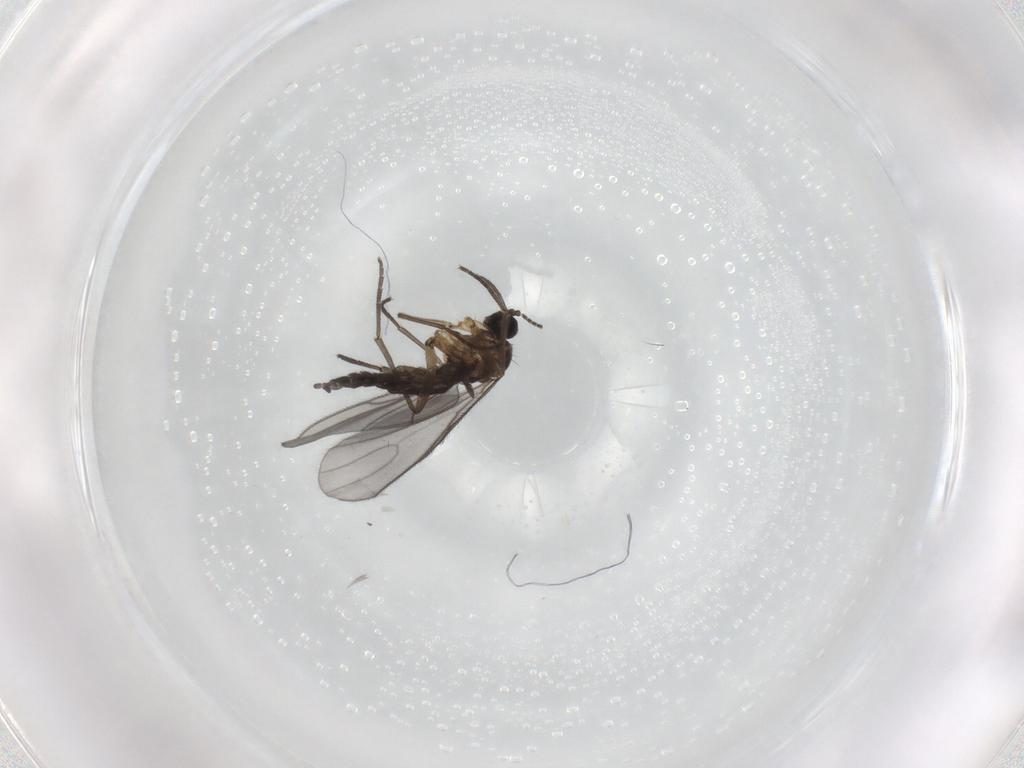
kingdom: Animalia
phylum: Arthropoda
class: Insecta
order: Diptera
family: Sciaridae
